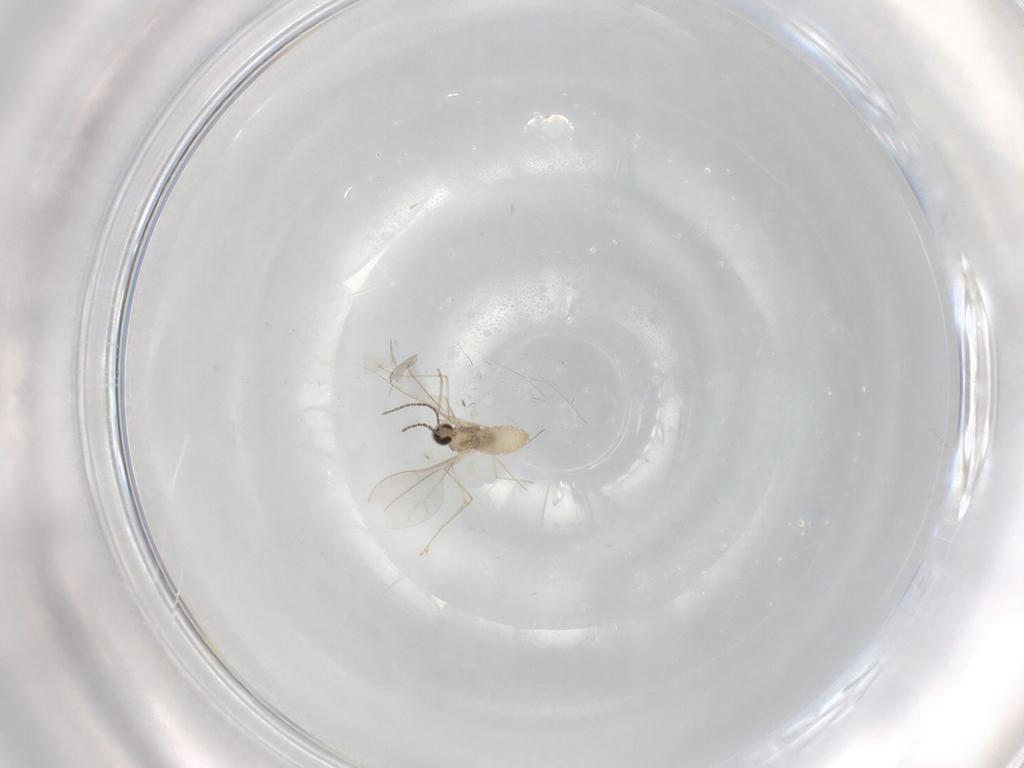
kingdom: Animalia
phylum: Arthropoda
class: Insecta
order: Diptera
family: Cecidomyiidae
